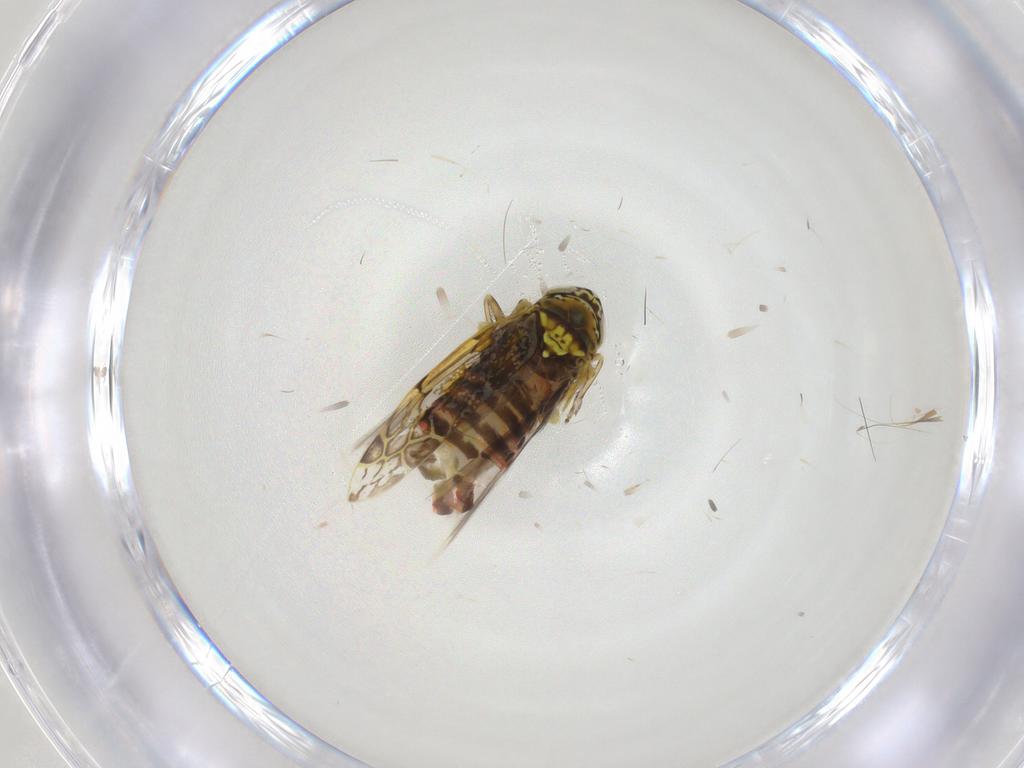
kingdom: Animalia
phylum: Arthropoda
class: Insecta
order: Hemiptera
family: Cicadellidae
